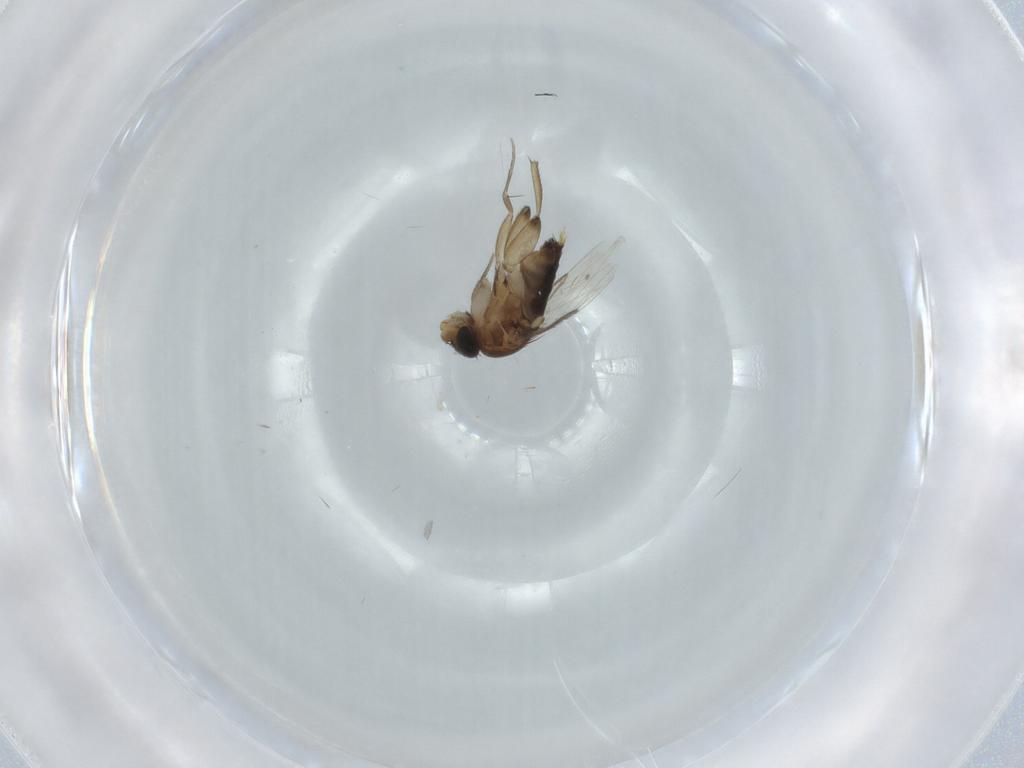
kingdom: Animalia
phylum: Arthropoda
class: Insecta
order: Diptera
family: Phoridae
